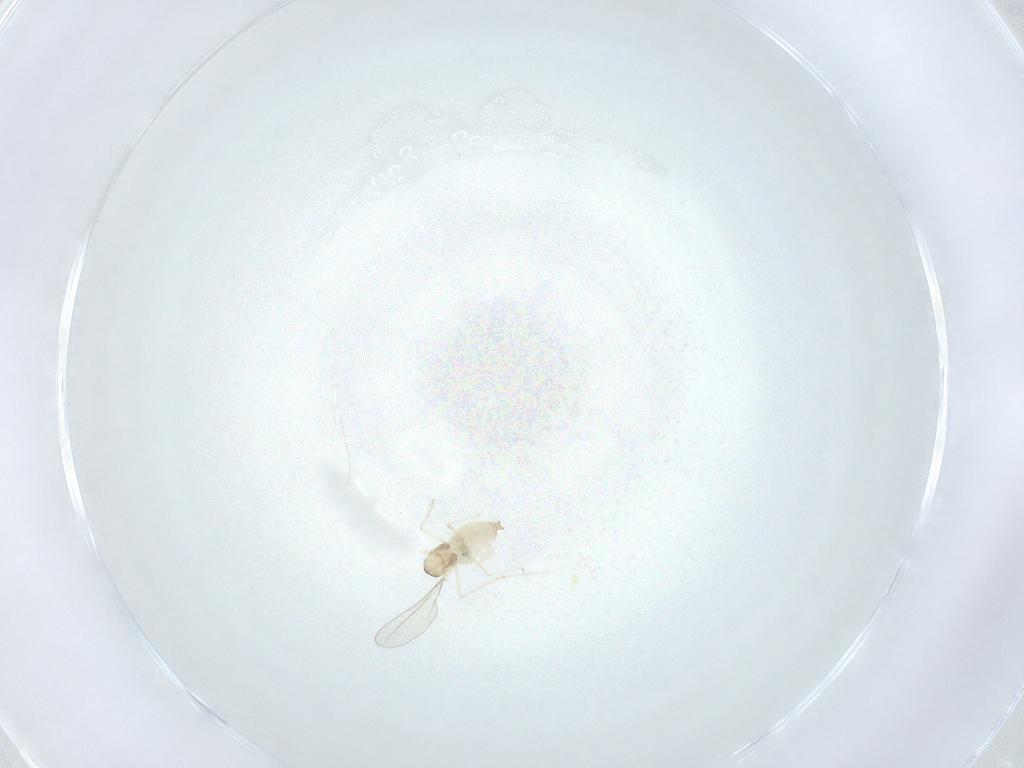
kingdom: Animalia
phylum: Arthropoda
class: Insecta
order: Diptera
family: Cecidomyiidae
